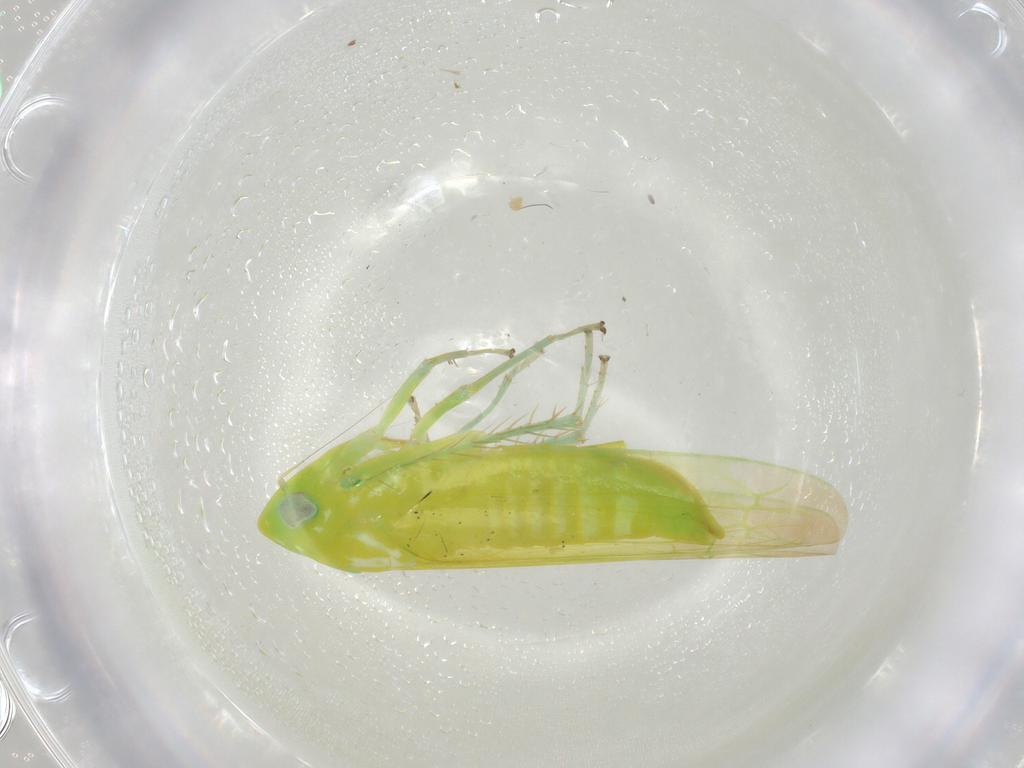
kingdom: Animalia
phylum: Arthropoda
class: Insecta
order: Hemiptera
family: Cicadellidae
